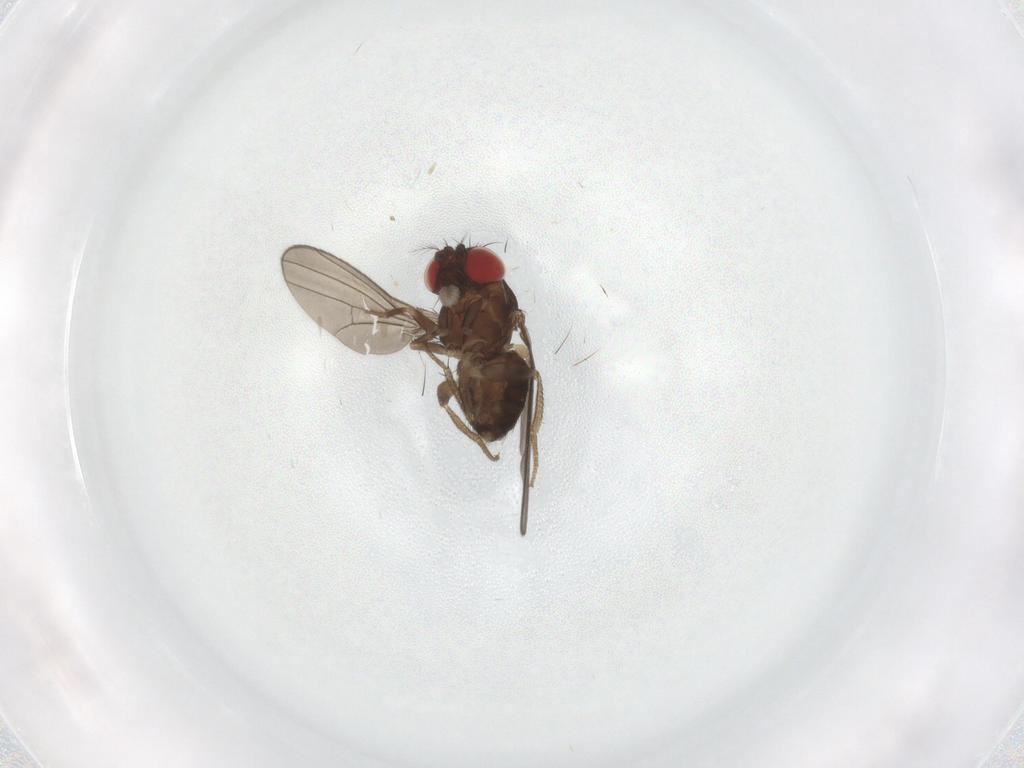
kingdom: Animalia
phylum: Arthropoda
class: Insecta
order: Diptera
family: Drosophilidae
